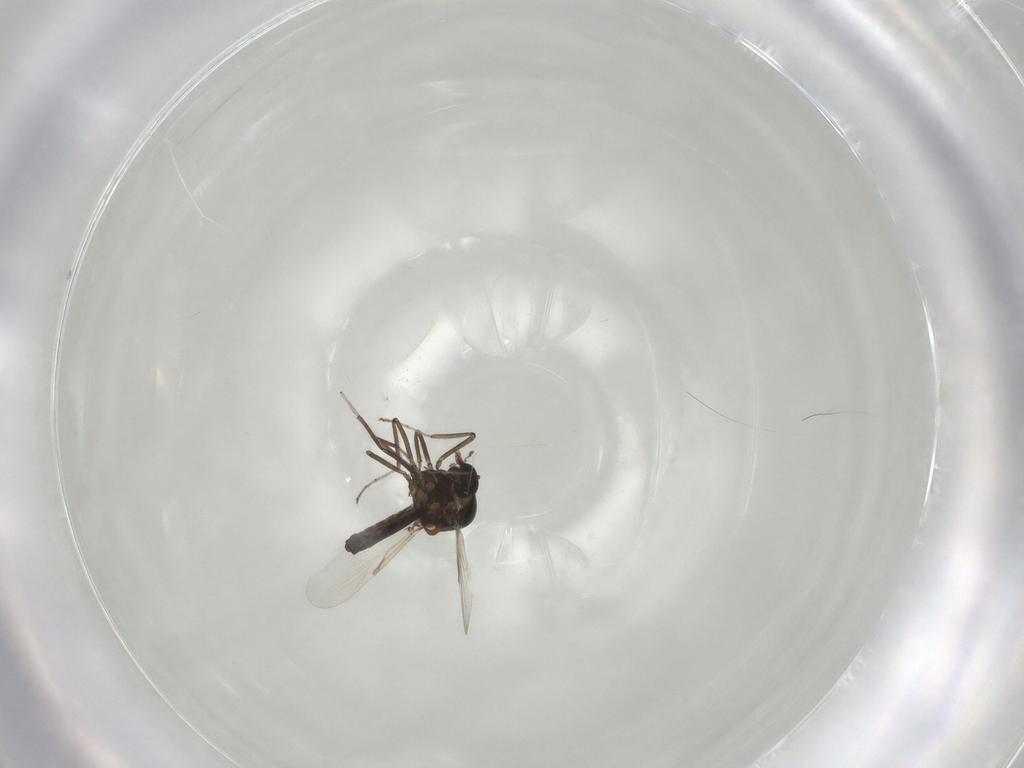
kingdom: Animalia
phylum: Arthropoda
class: Insecta
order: Diptera
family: Ceratopogonidae
